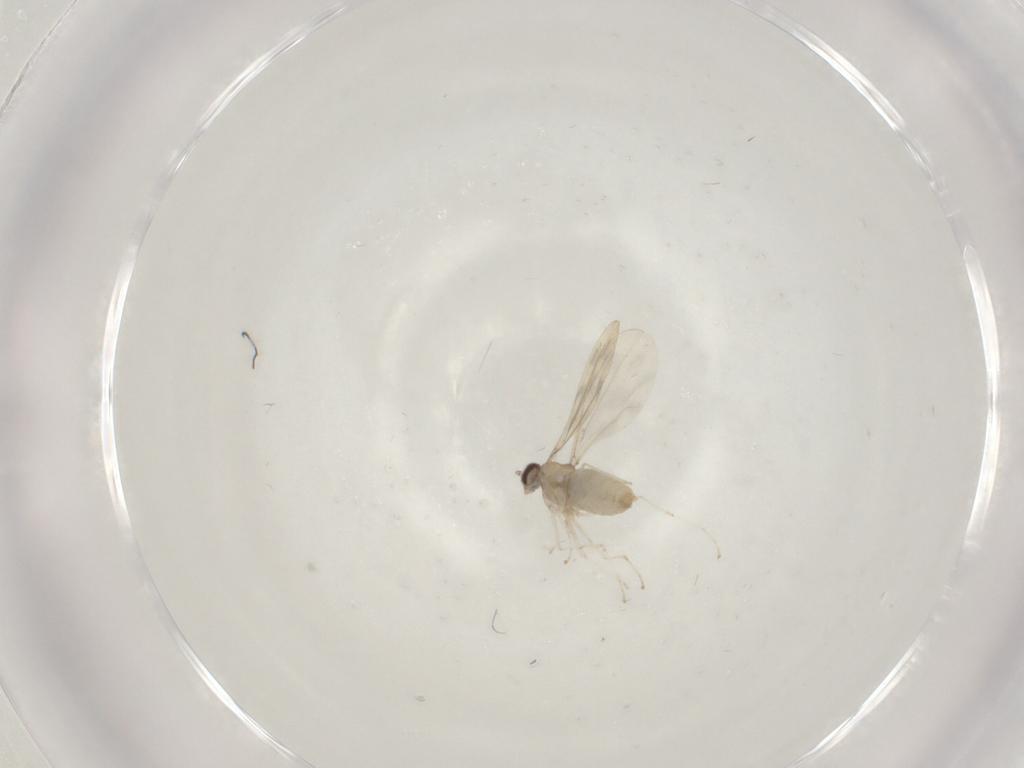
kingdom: Animalia
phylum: Arthropoda
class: Insecta
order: Diptera
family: Cecidomyiidae
